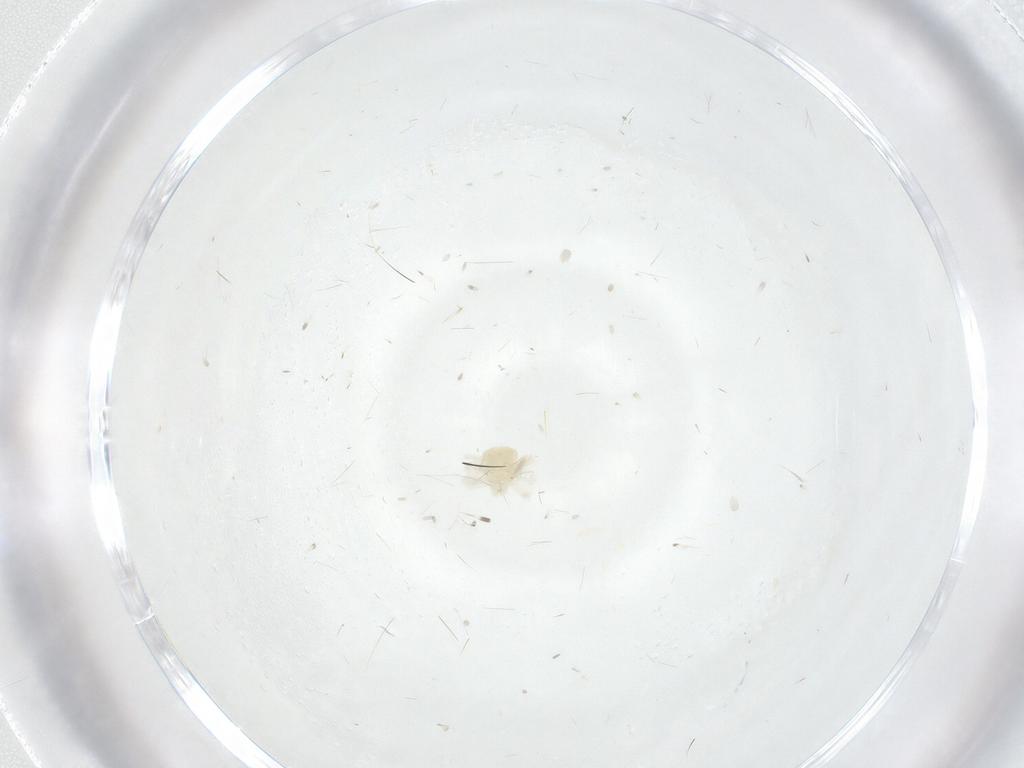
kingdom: Animalia
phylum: Arthropoda
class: Arachnida
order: Trombidiformes
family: Anystidae
